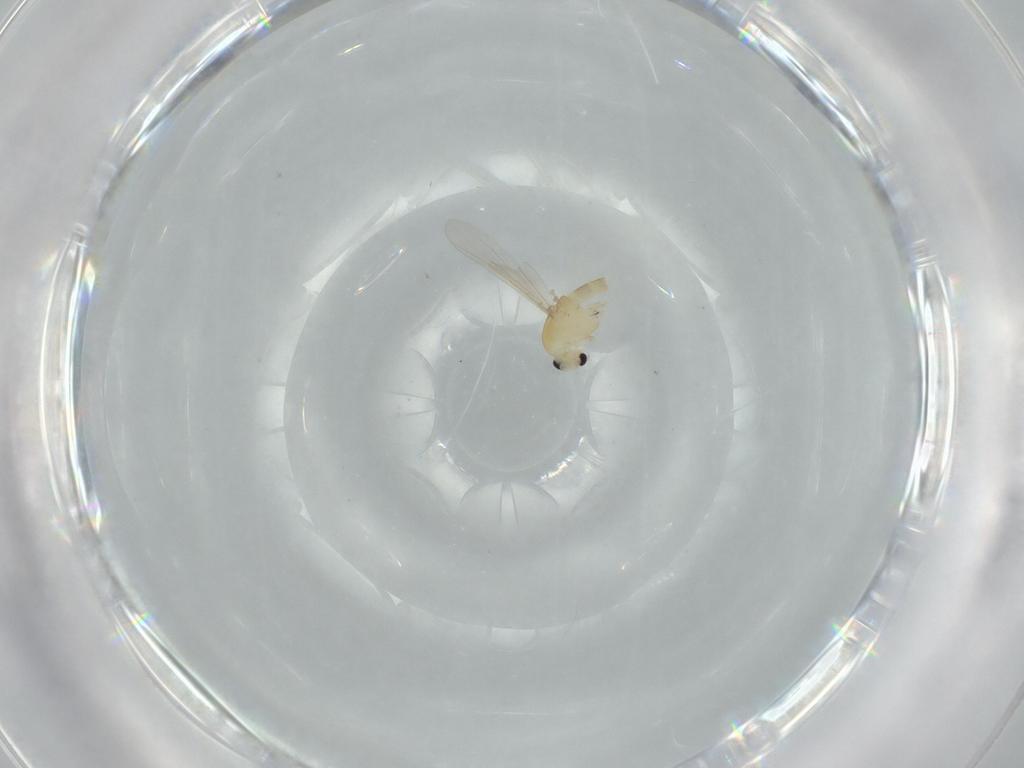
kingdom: Animalia
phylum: Arthropoda
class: Insecta
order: Diptera
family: Chironomidae
